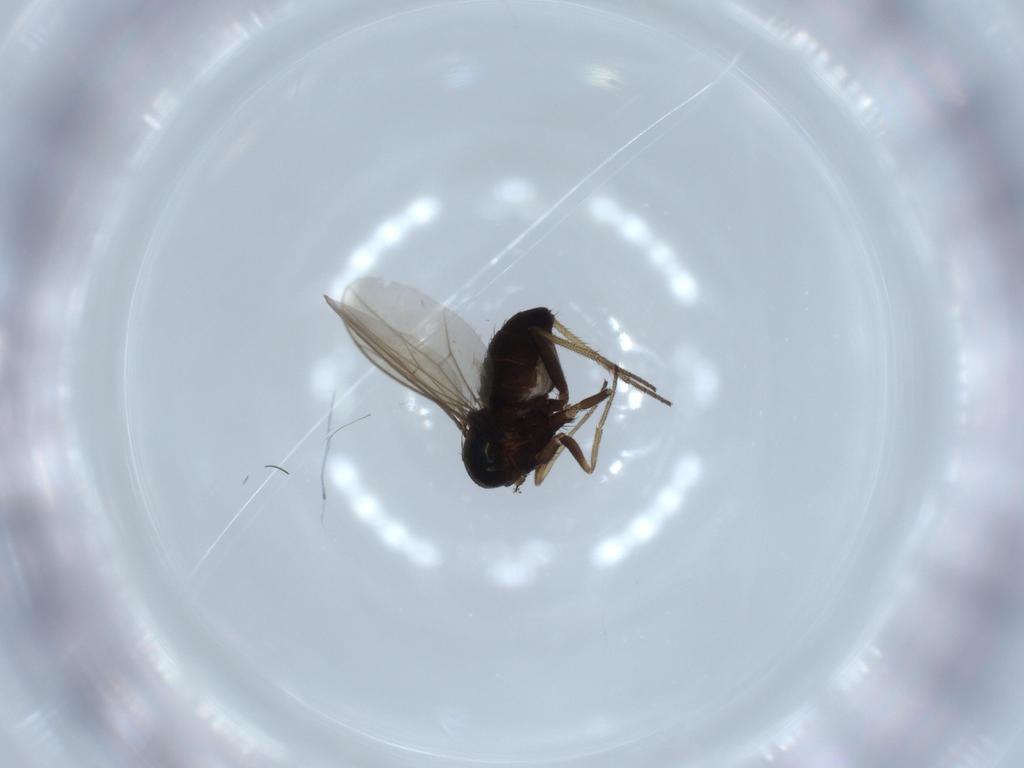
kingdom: Animalia
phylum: Arthropoda
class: Insecta
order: Diptera
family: Dolichopodidae
